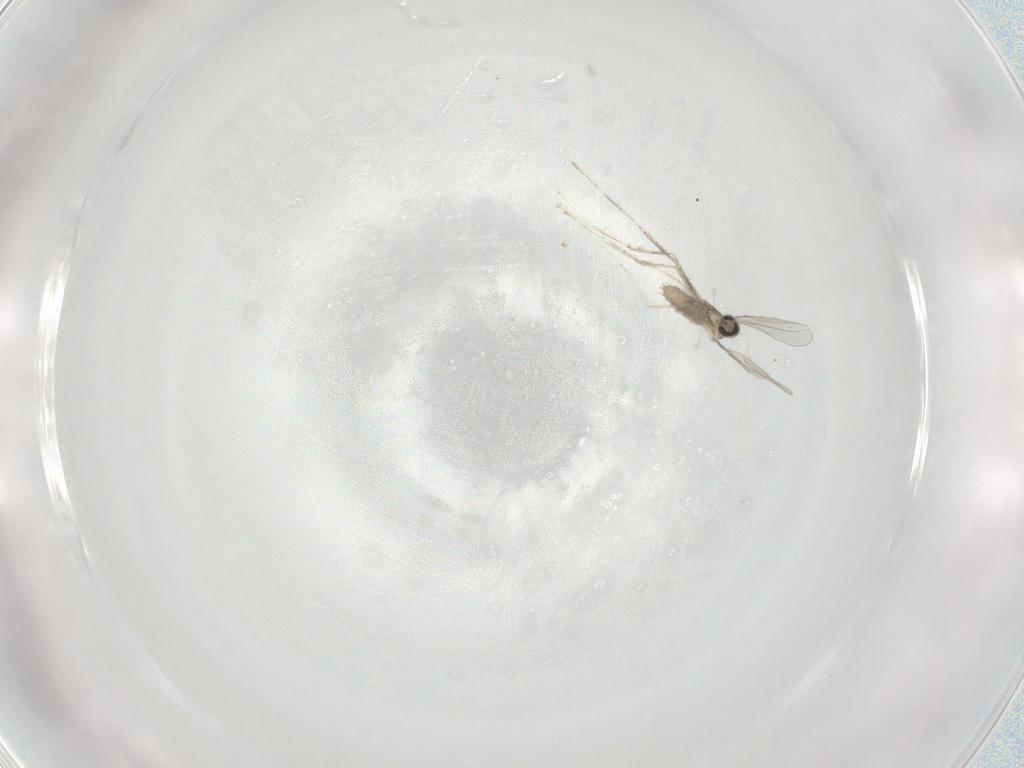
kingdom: Animalia
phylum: Arthropoda
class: Insecta
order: Diptera
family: Cecidomyiidae
